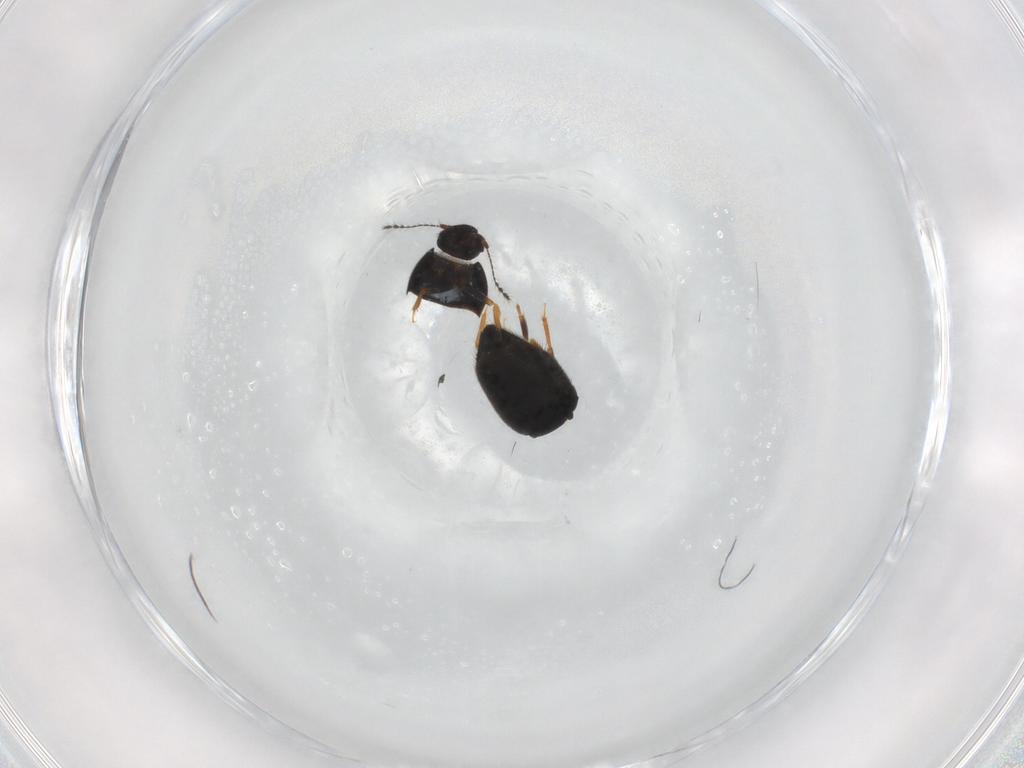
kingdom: Animalia
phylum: Arthropoda
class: Insecta
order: Coleoptera
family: Ptiliidae
